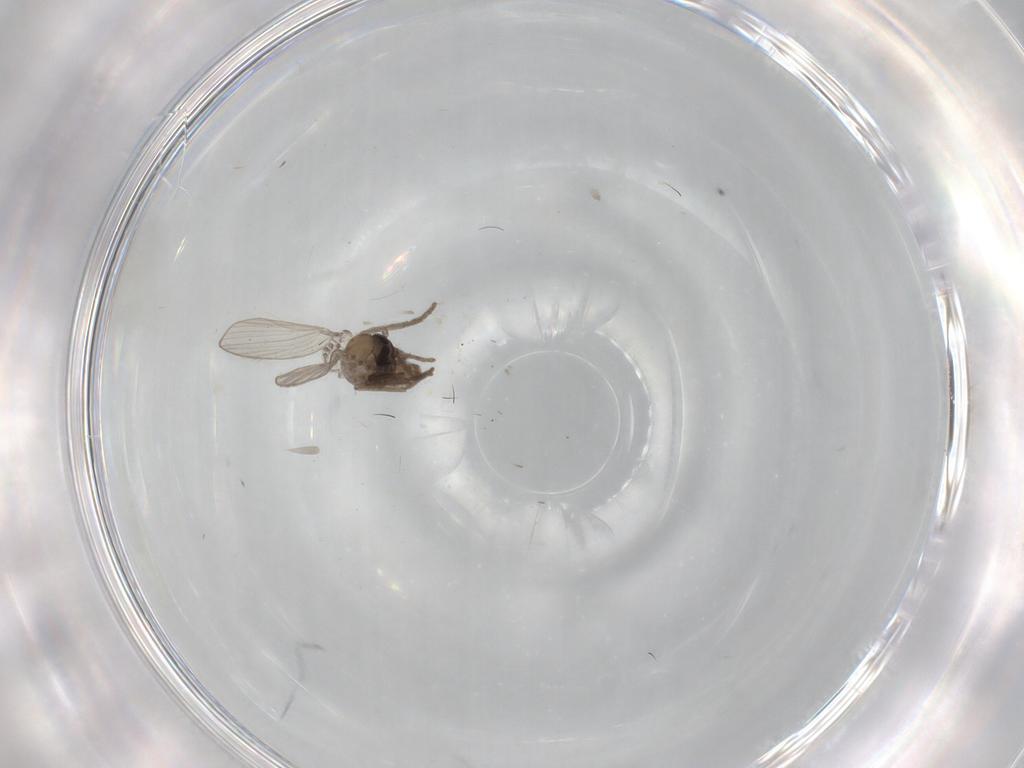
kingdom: Animalia
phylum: Arthropoda
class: Insecta
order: Diptera
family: Psychodidae
